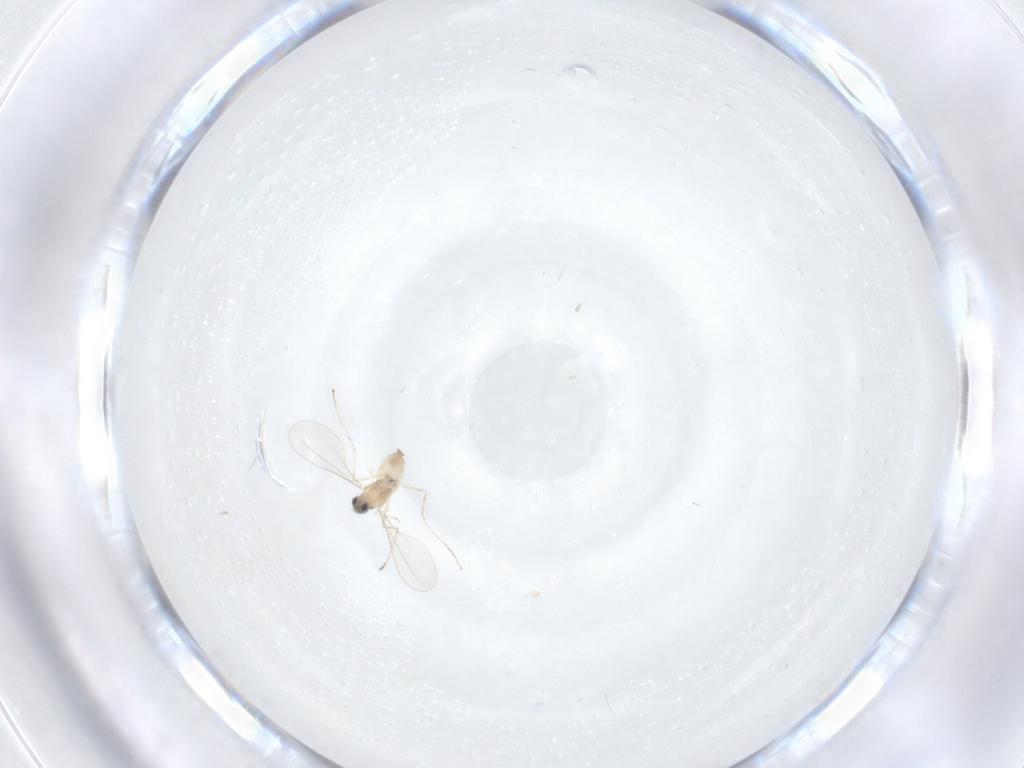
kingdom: Animalia
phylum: Arthropoda
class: Insecta
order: Diptera
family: Cecidomyiidae
